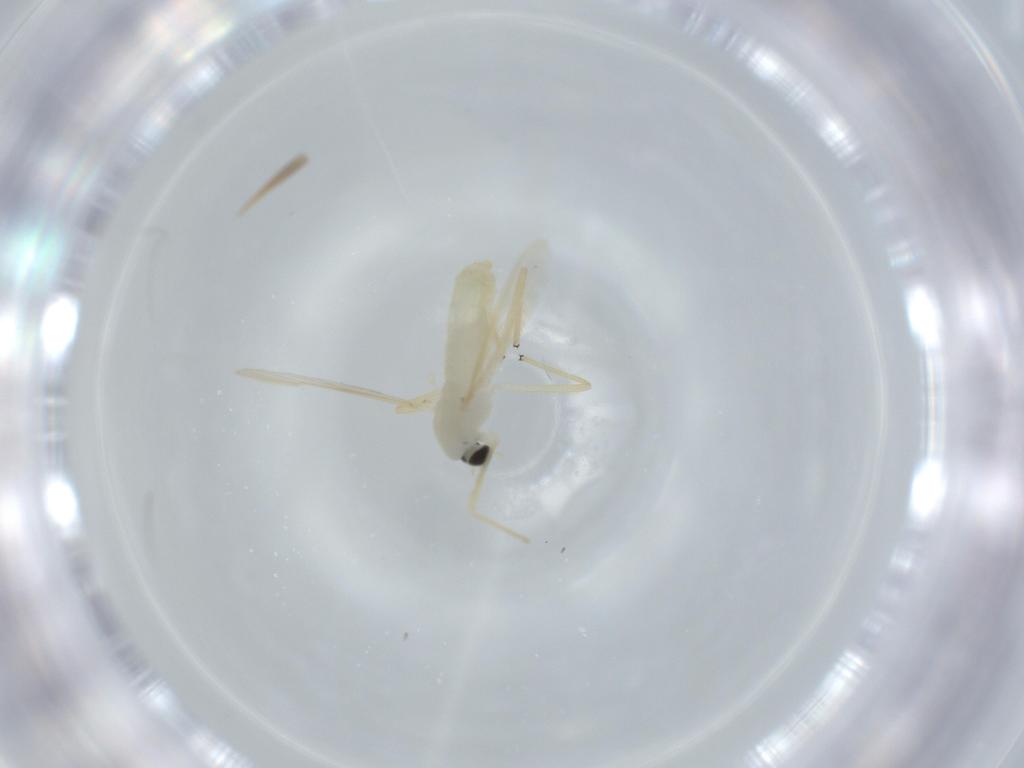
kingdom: Animalia
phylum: Arthropoda
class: Insecta
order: Diptera
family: Chironomidae
